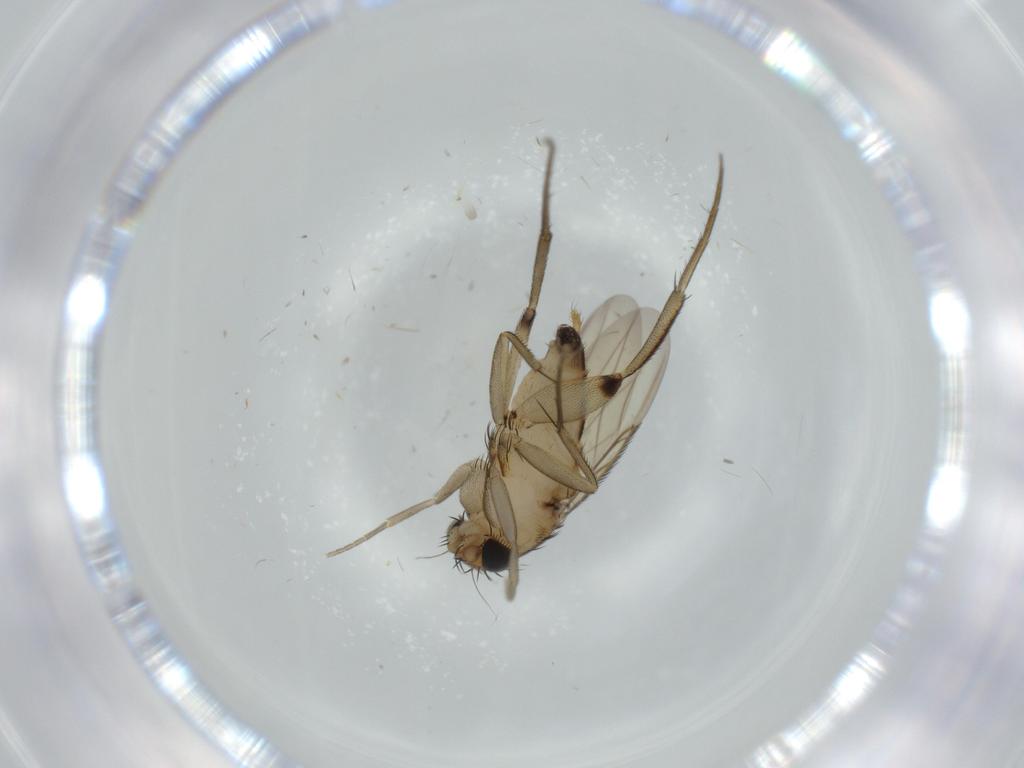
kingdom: Animalia
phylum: Arthropoda
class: Insecta
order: Diptera
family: Phoridae
